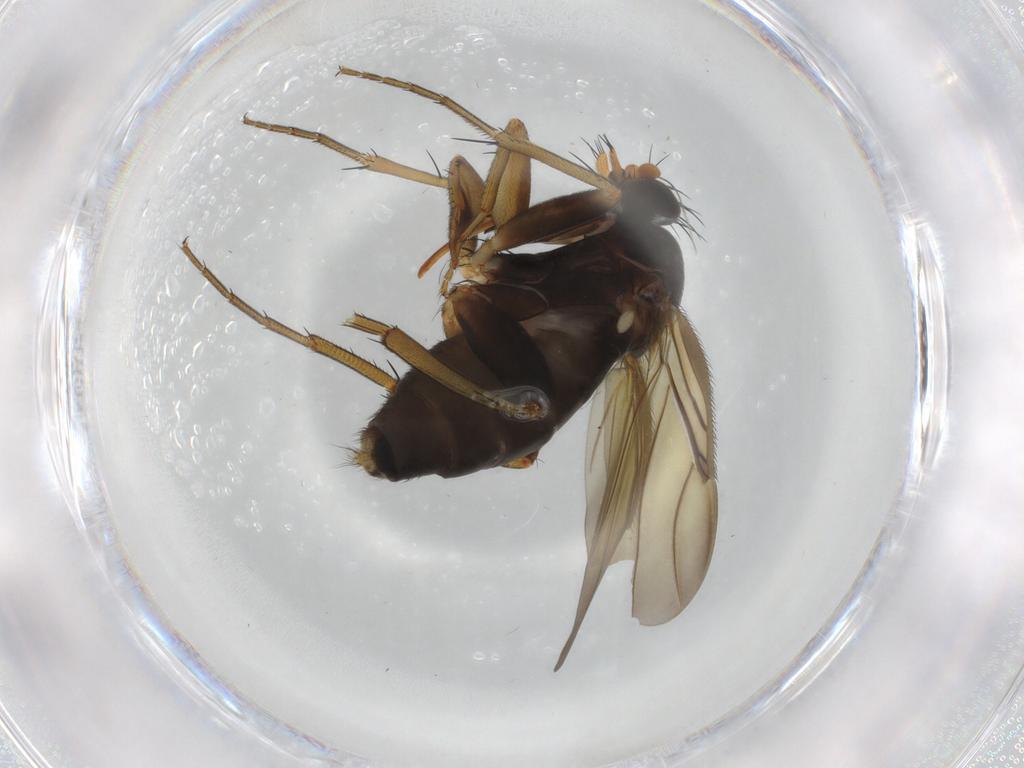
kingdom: Animalia
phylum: Arthropoda
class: Insecta
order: Diptera
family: Phoridae
